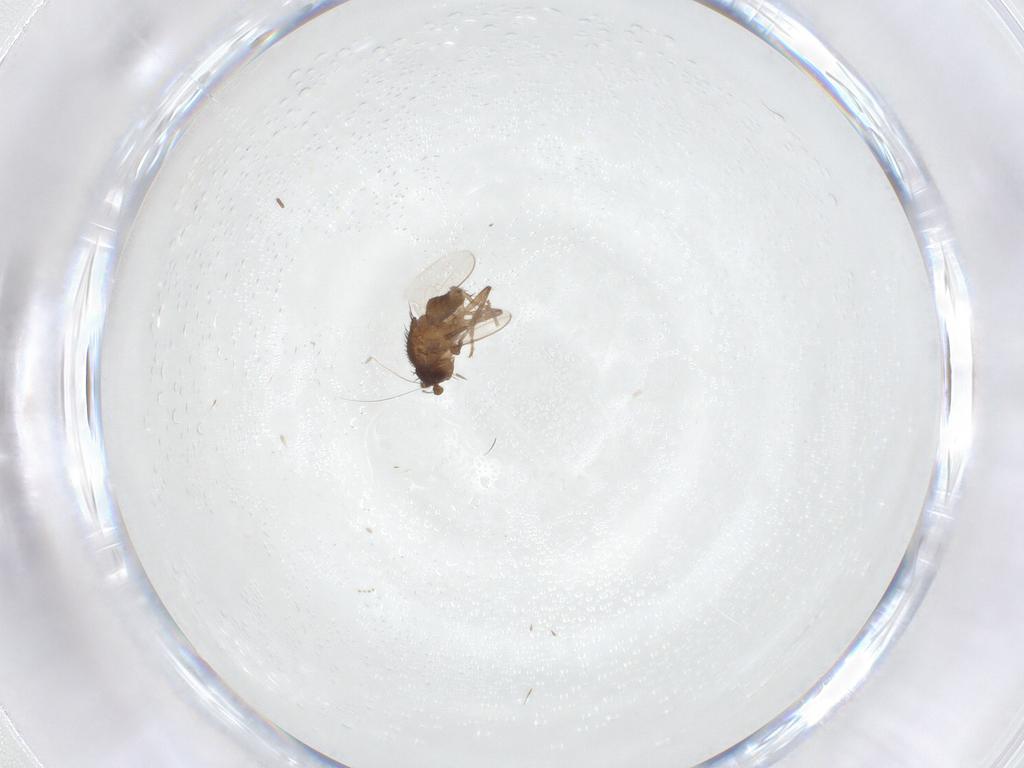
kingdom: Animalia
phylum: Arthropoda
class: Insecta
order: Diptera
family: Sphaeroceridae
